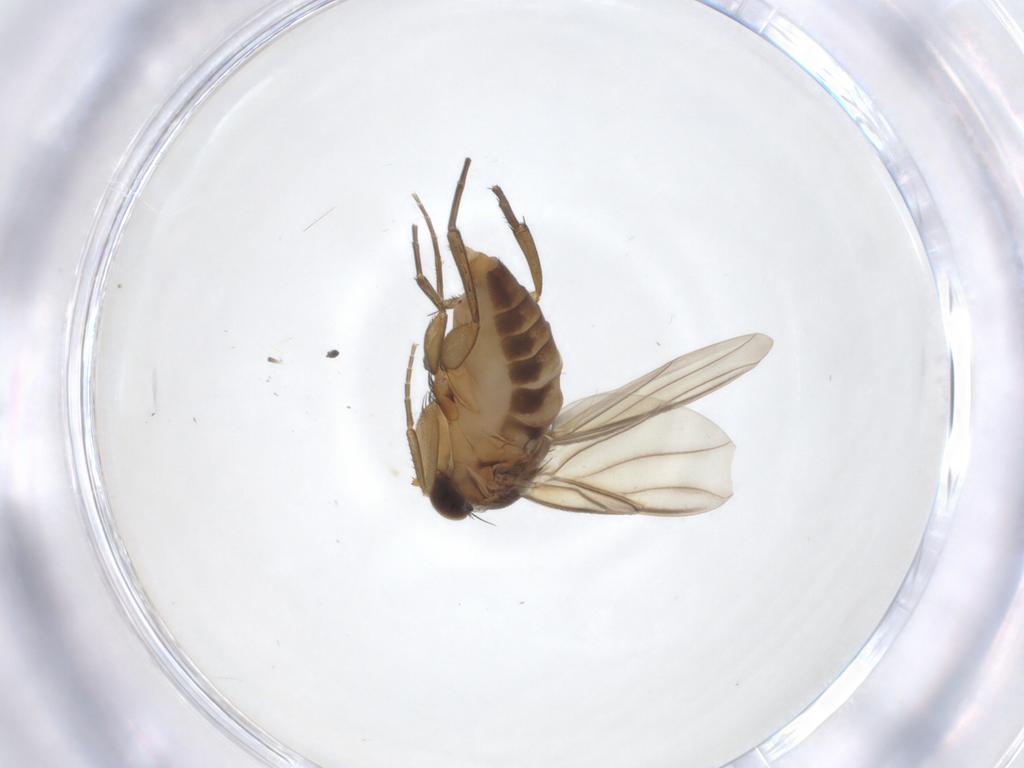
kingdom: Animalia
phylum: Arthropoda
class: Insecta
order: Diptera
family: Phoridae
